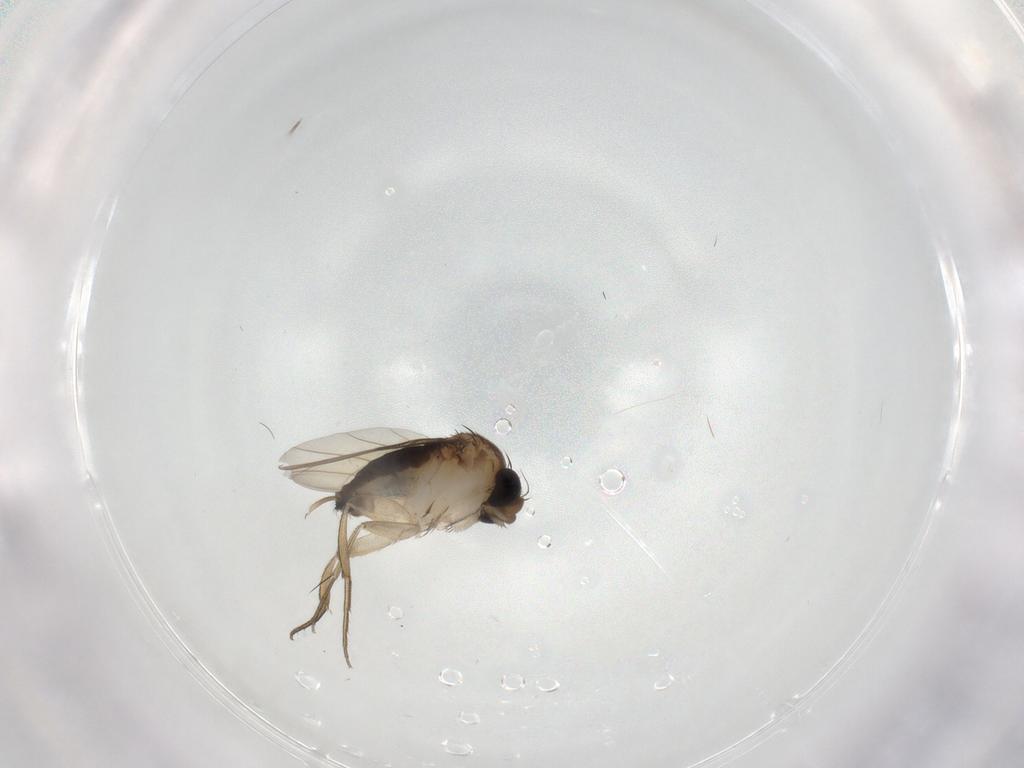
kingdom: Animalia
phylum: Arthropoda
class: Insecta
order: Diptera
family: Phoridae
